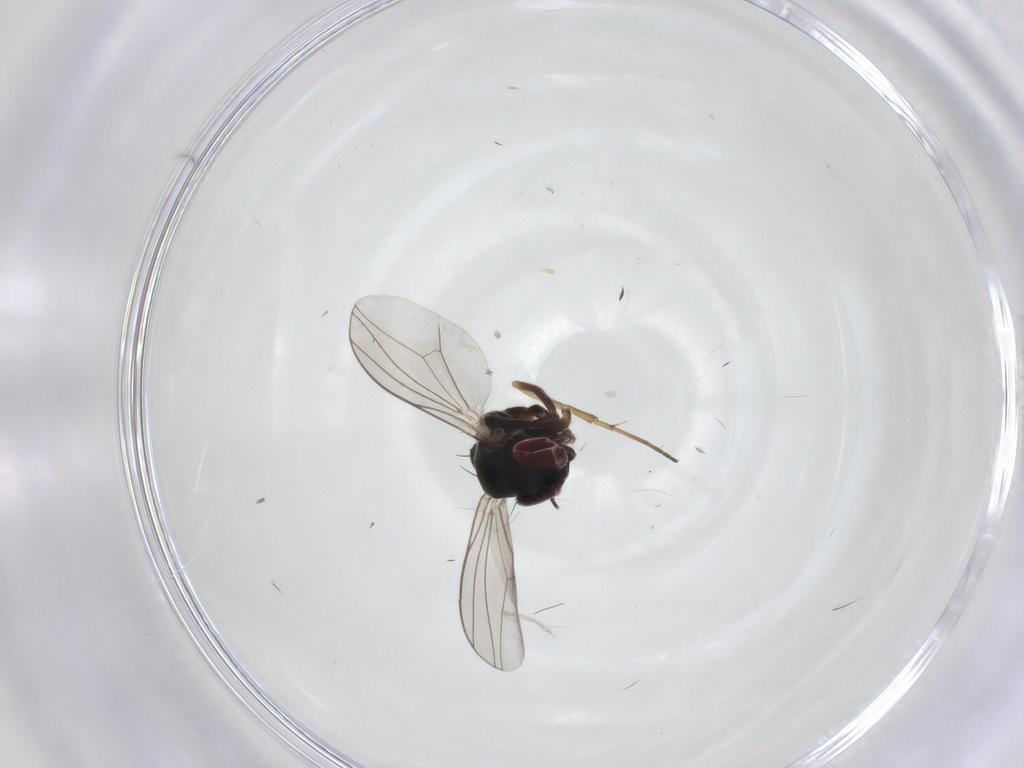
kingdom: Animalia
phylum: Arthropoda
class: Insecta
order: Diptera
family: Dolichopodidae
